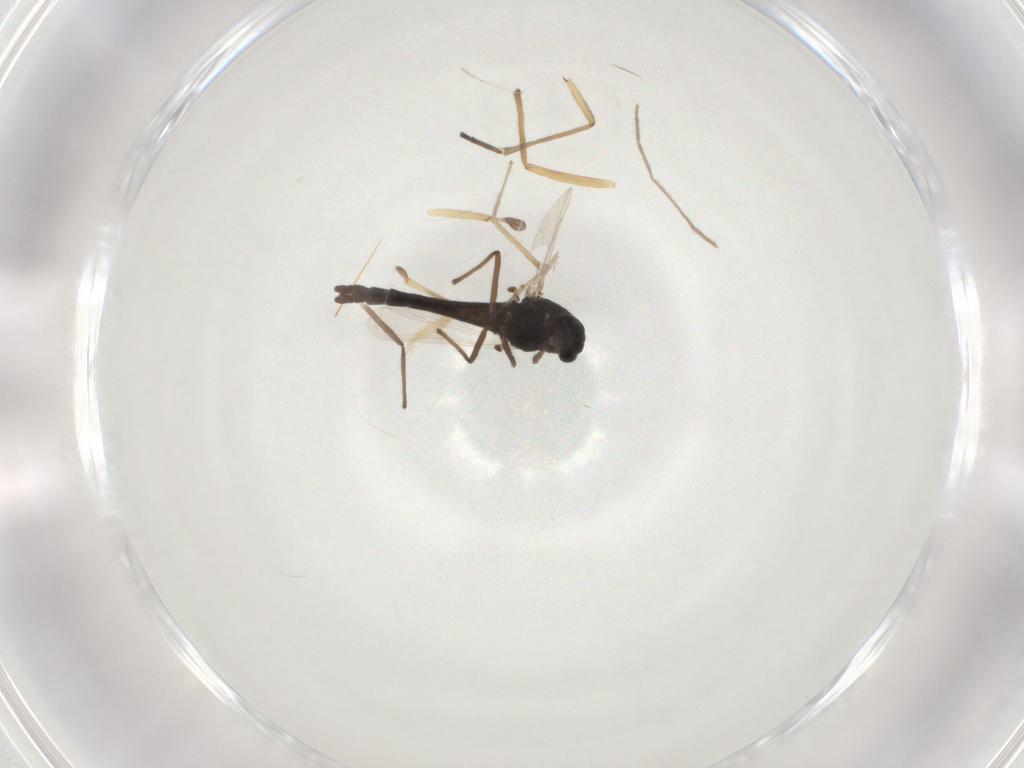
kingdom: Animalia
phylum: Arthropoda
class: Insecta
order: Diptera
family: Chironomidae
